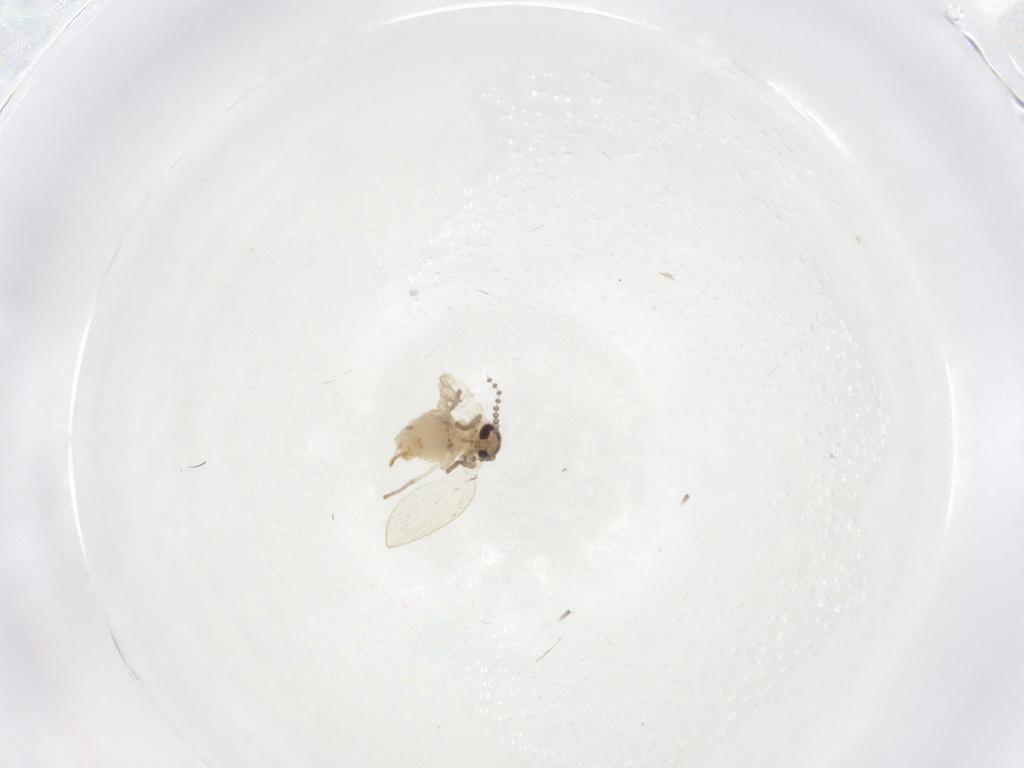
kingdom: Animalia
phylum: Arthropoda
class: Insecta
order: Diptera
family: Psychodidae
